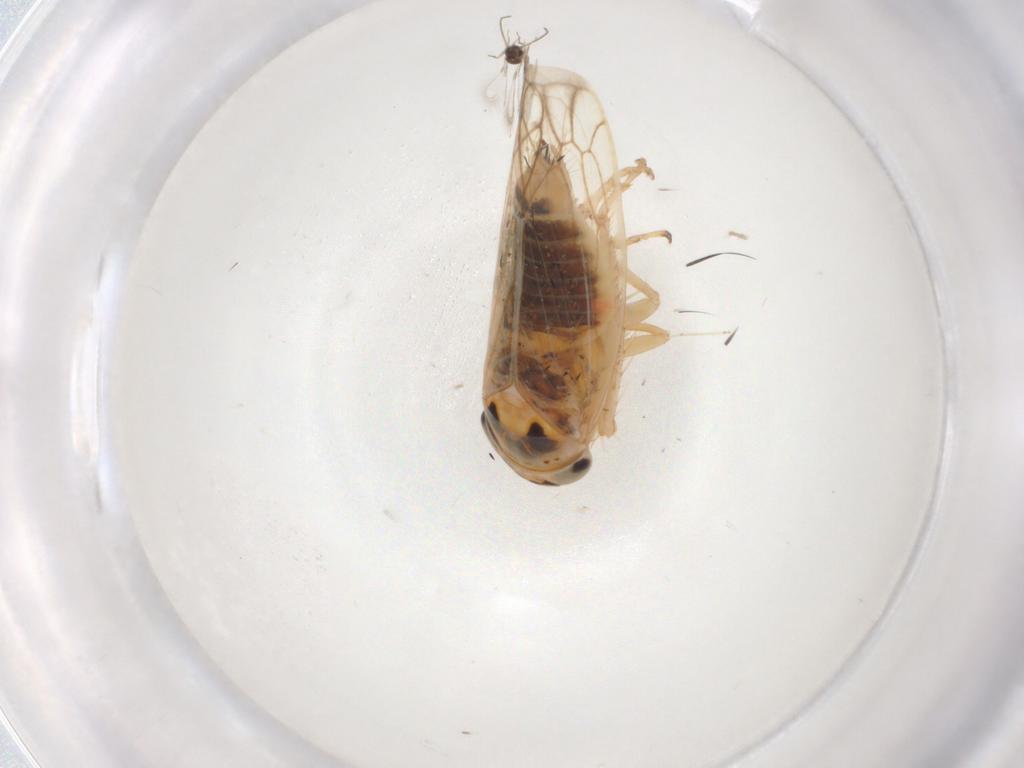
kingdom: Animalia
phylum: Arthropoda
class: Insecta
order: Hemiptera
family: Cicadellidae
